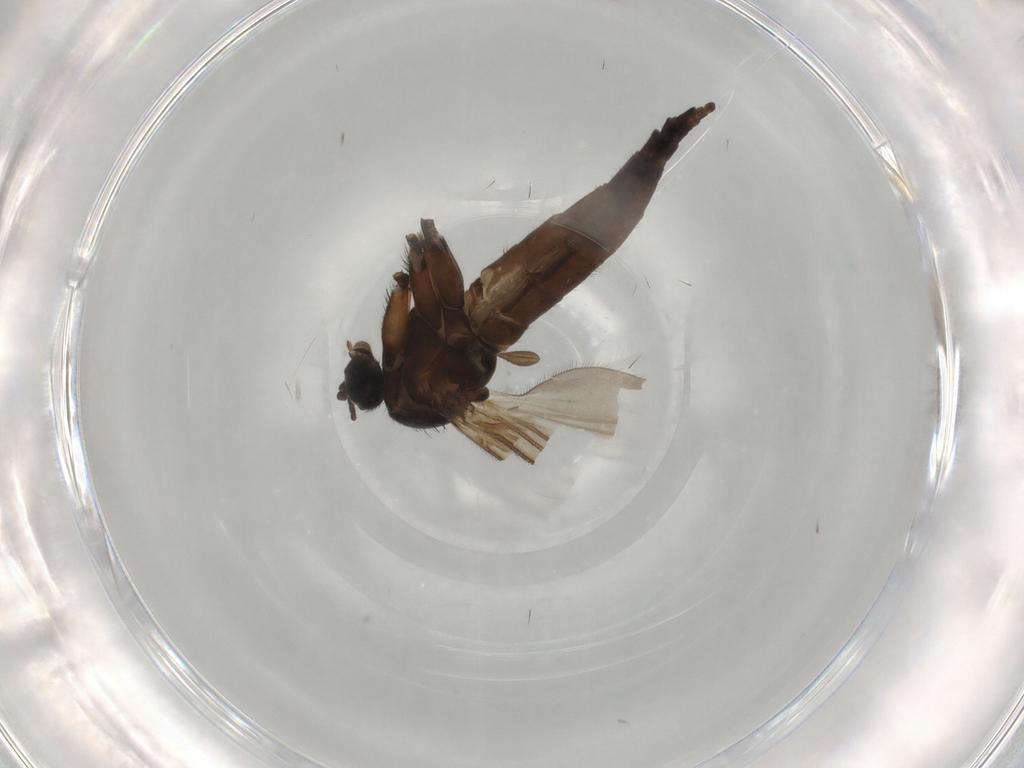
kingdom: Animalia
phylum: Arthropoda
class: Insecta
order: Diptera
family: Sciaridae
